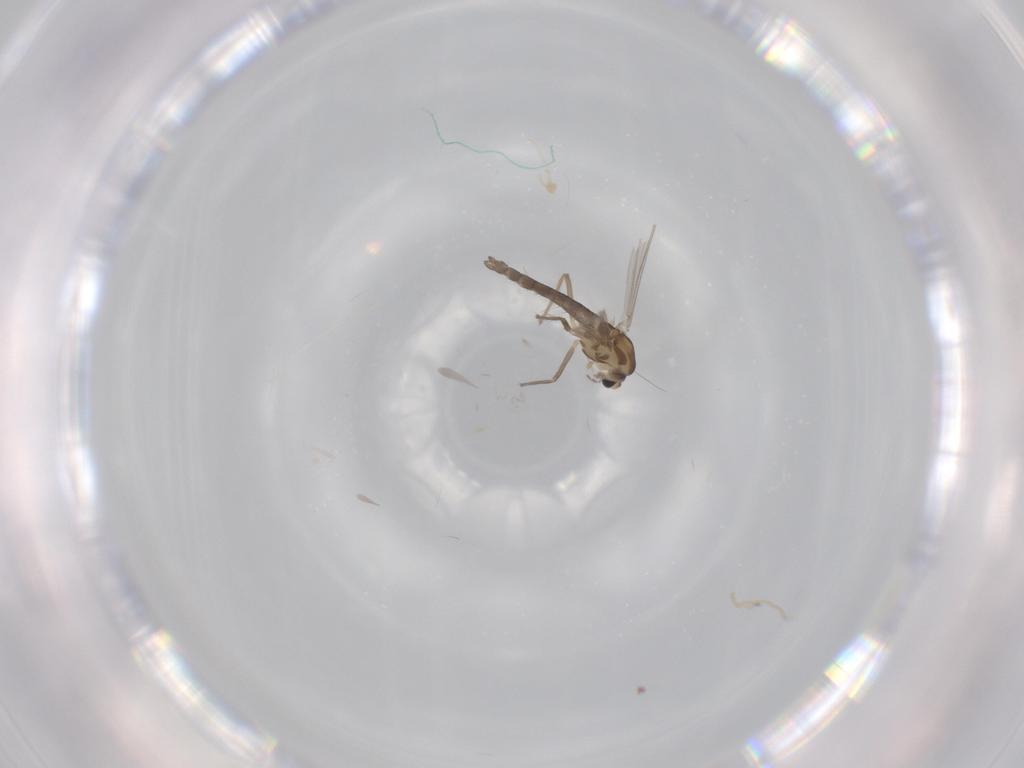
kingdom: Animalia
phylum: Arthropoda
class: Insecta
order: Diptera
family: Chironomidae
